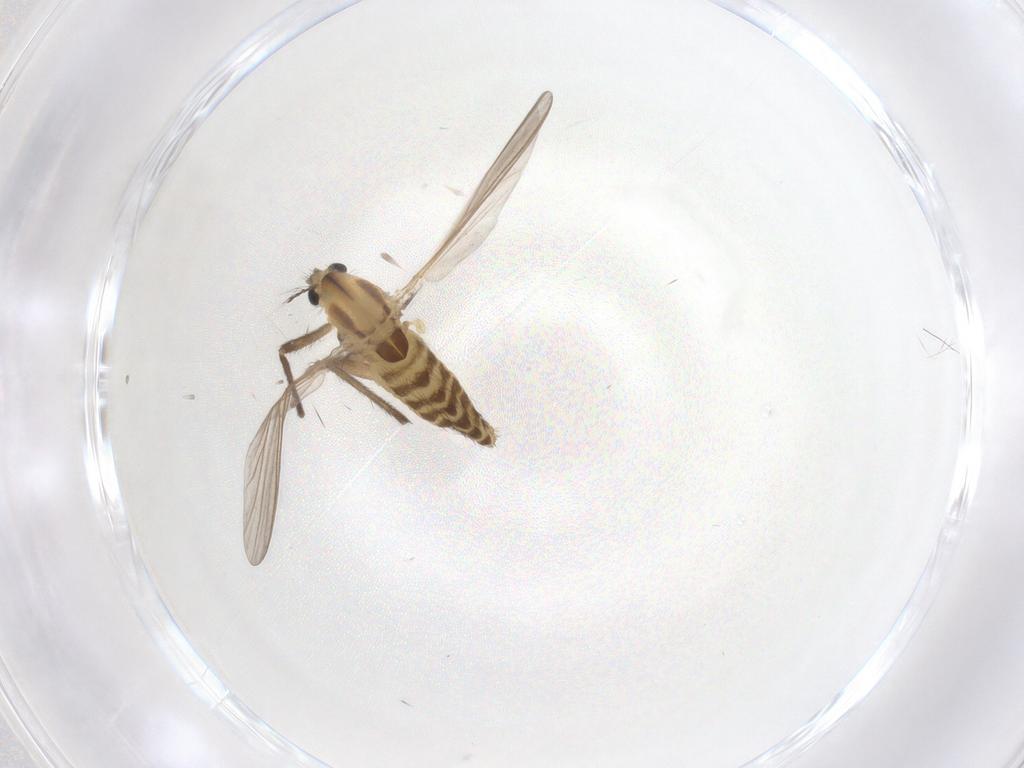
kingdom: Animalia
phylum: Arthropoda
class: Insecta
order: Diptera
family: Chironomidae
